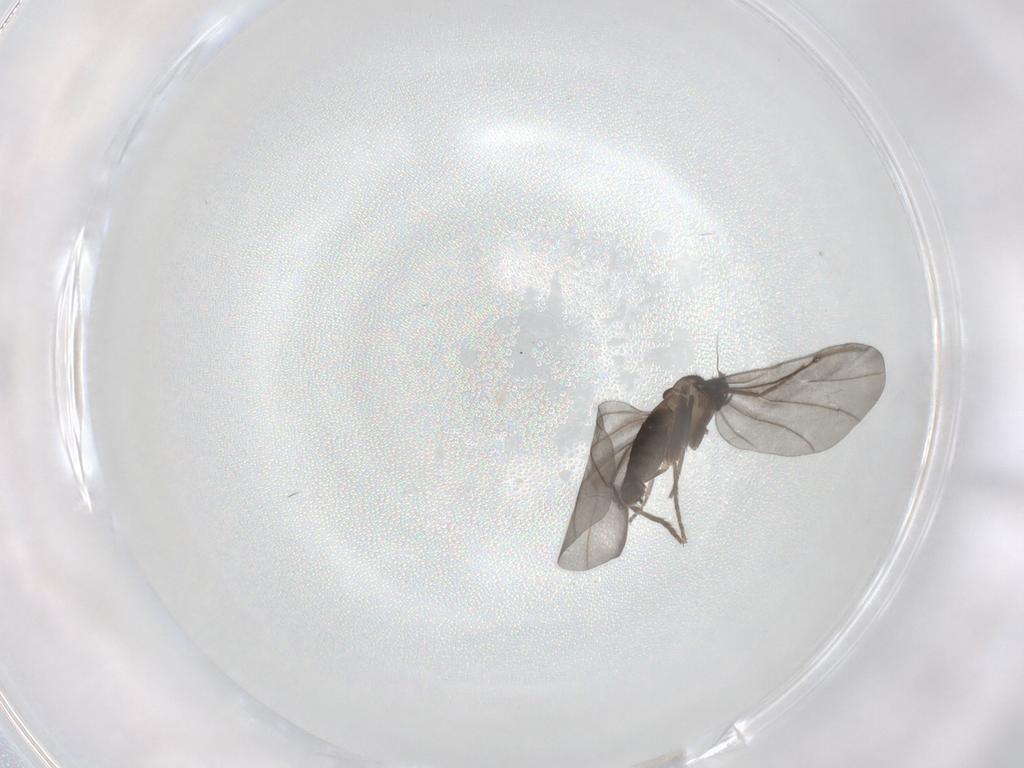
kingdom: Animalia
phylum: Arthropoda
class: Insecta
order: Diptera
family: Phoridae
